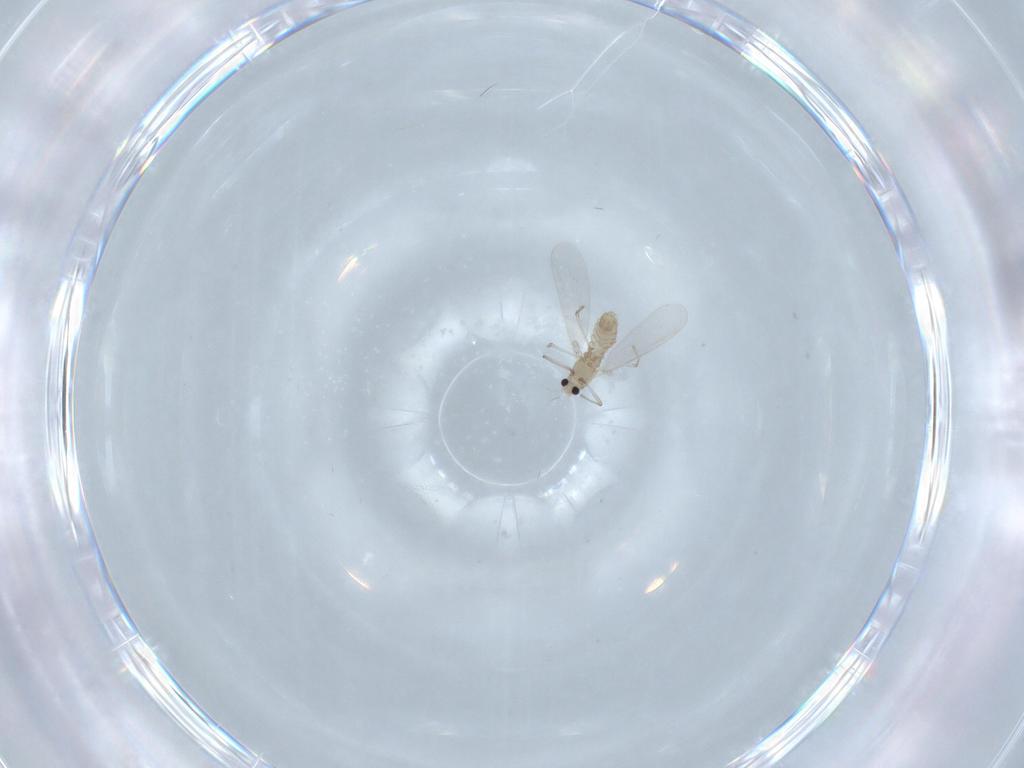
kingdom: Animalia
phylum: Arthropoda
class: Insecta
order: Diptera
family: Chironomidae
